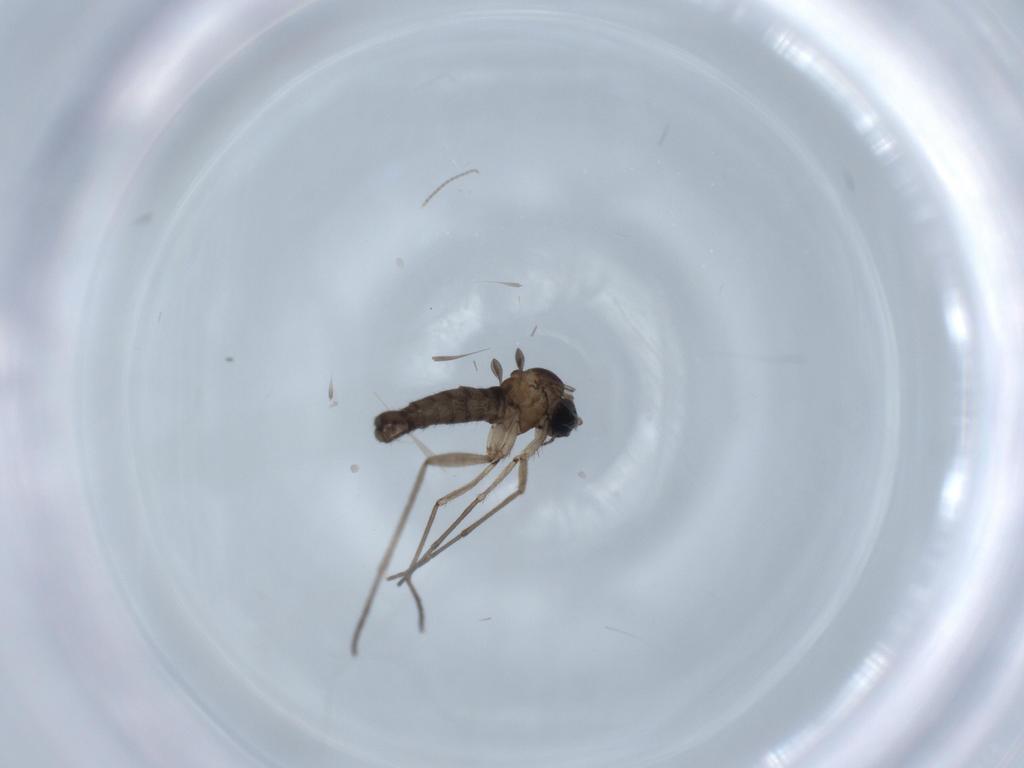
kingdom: Animalia
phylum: Arthropoda
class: Insecta
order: Diptera
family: Sciaridae
